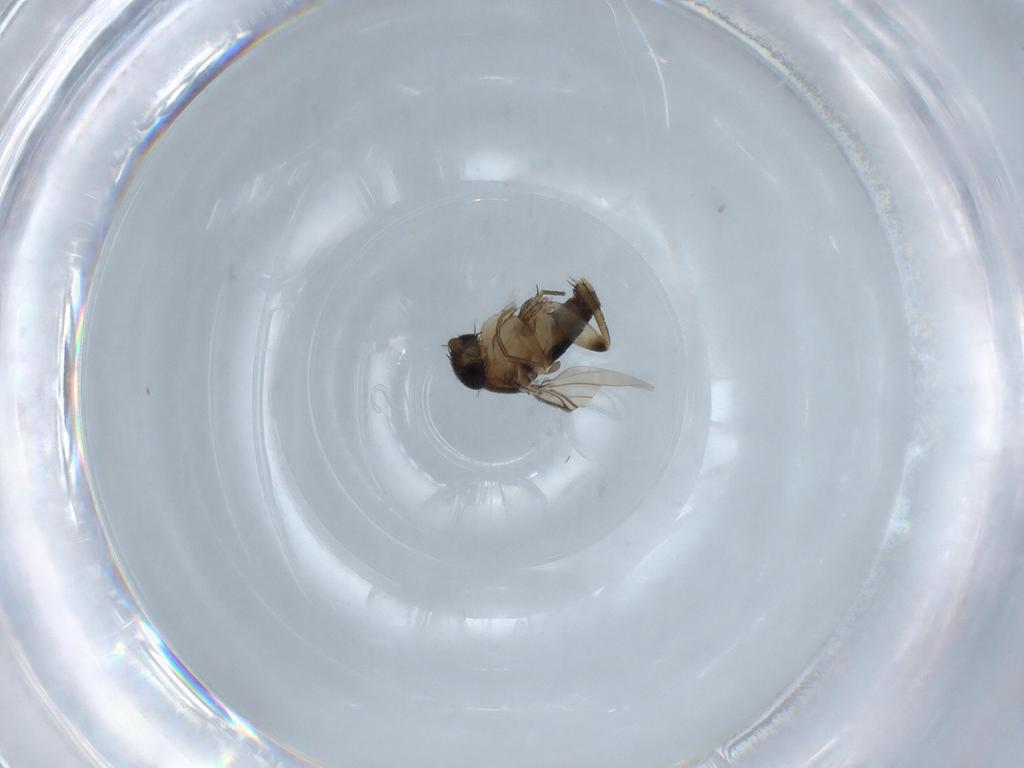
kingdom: Animalia
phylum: Arthropoda
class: Insecta
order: Diptera
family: Phoridae
